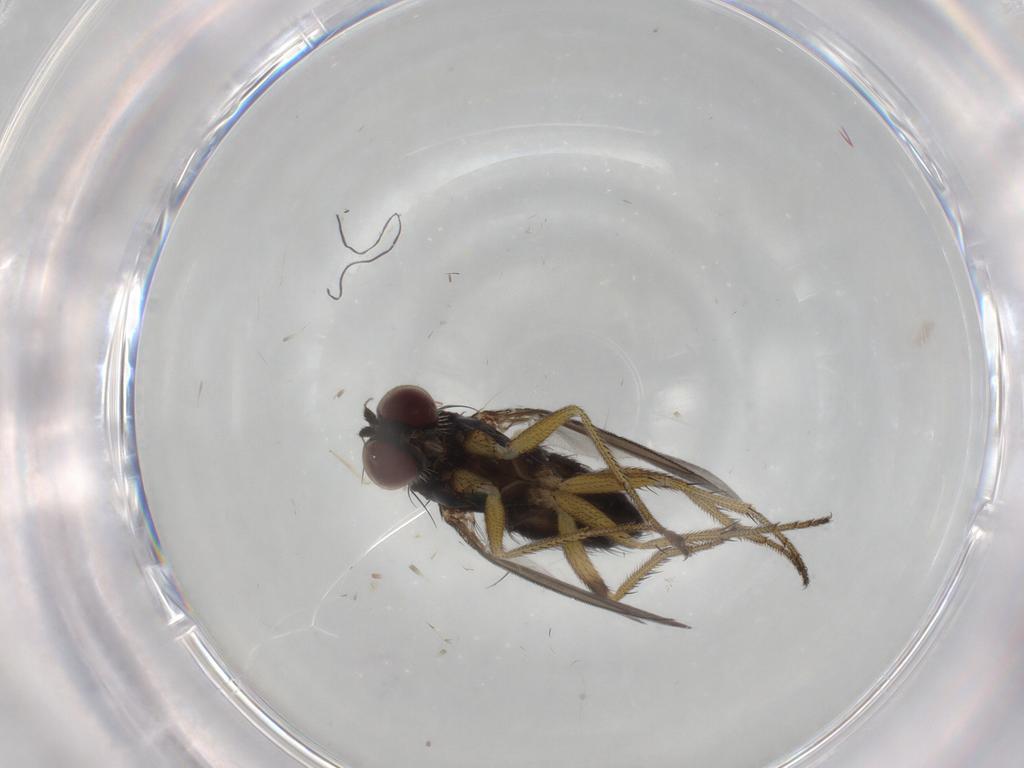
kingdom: Animalia
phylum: Arthropoda
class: Insecta
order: Diptera
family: Dolichopodidae
